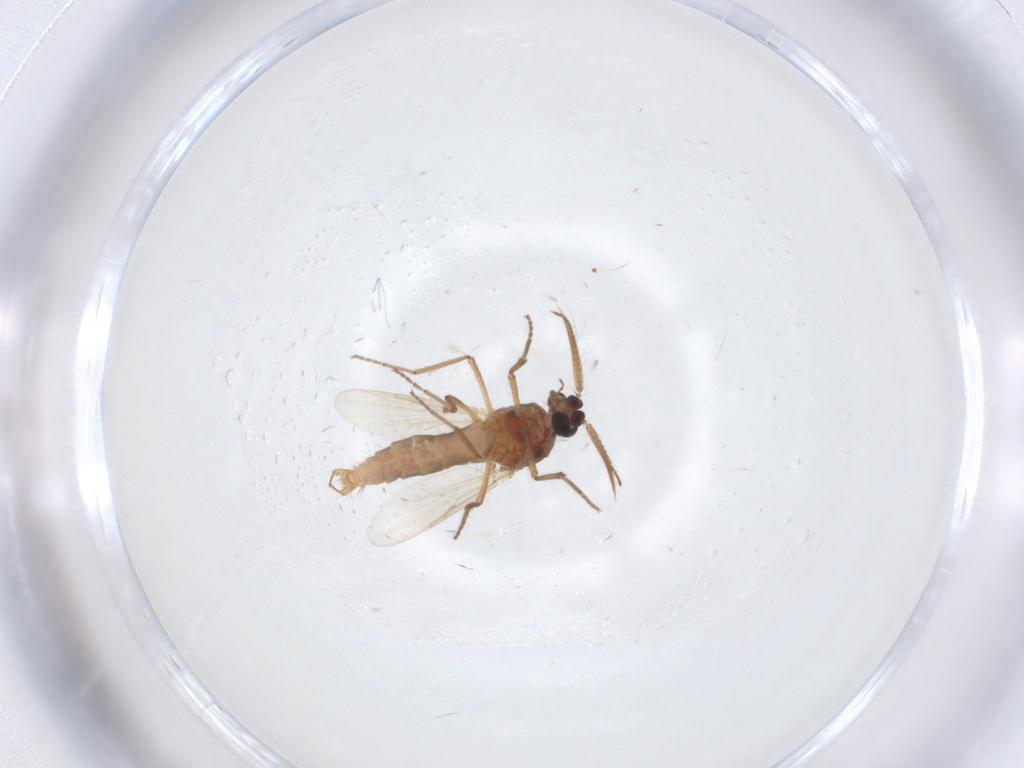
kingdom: Animalia
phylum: Arthropoda
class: Insecta
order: Diptera
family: Ceratopogonidae
